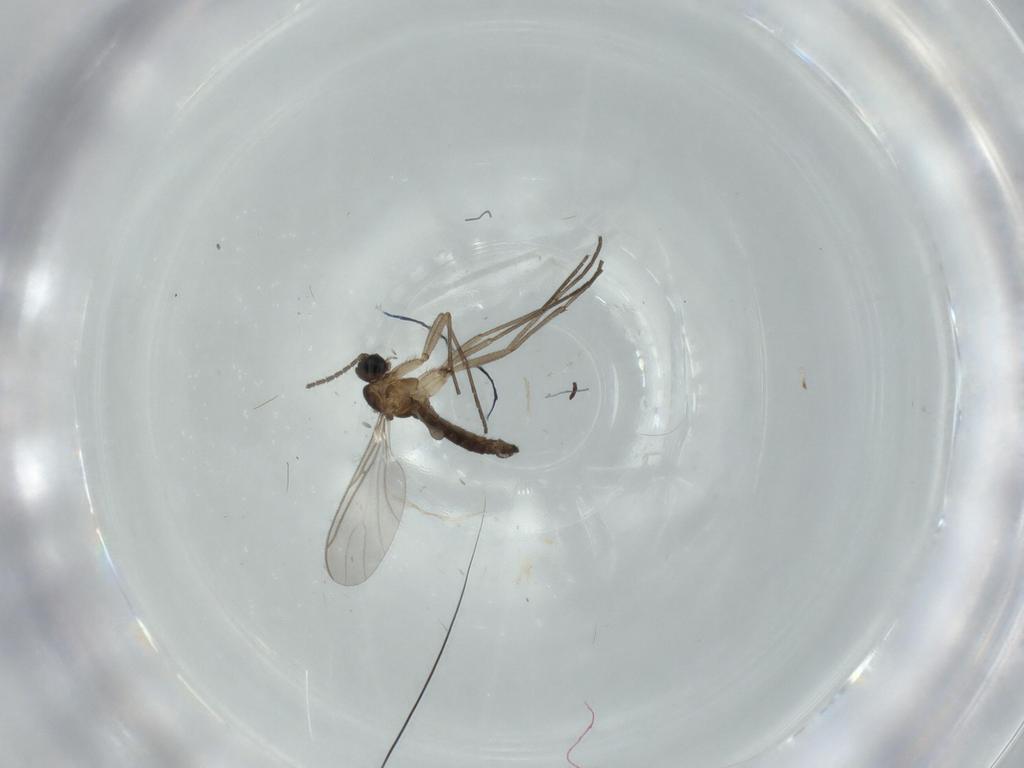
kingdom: Animalia
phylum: Arthropoda
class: Insecta
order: Diptera
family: Sciaridae
